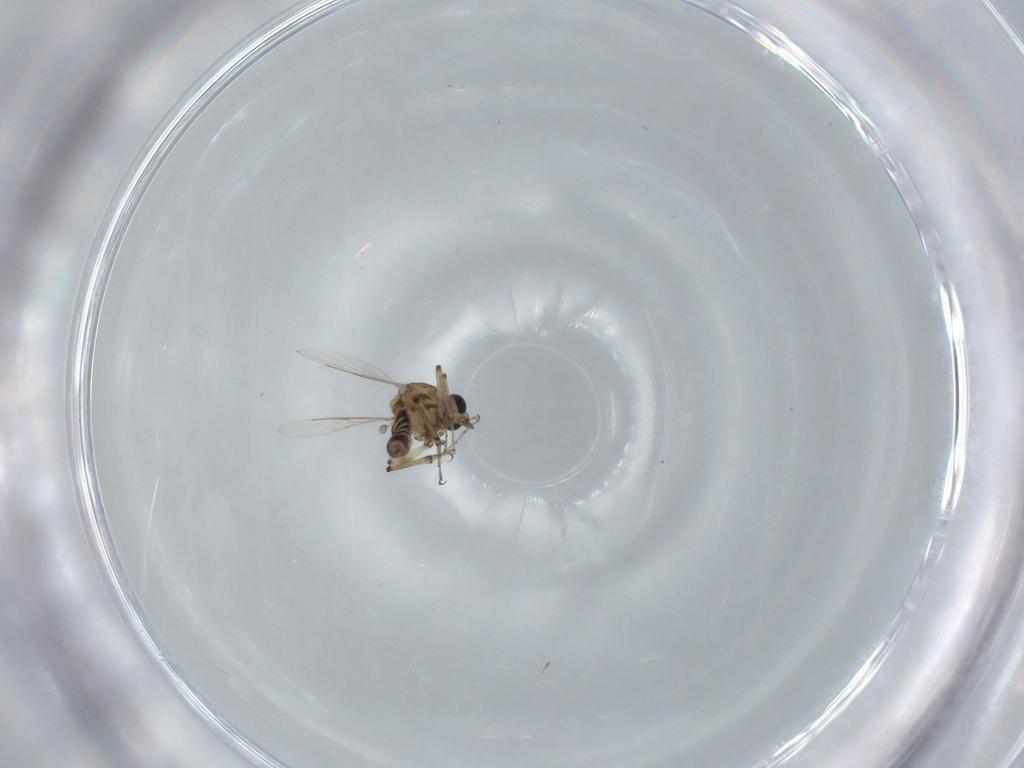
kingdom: Animalia
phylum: Arthropoda
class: Insecta
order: Diptera
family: Ceratopogonidae
